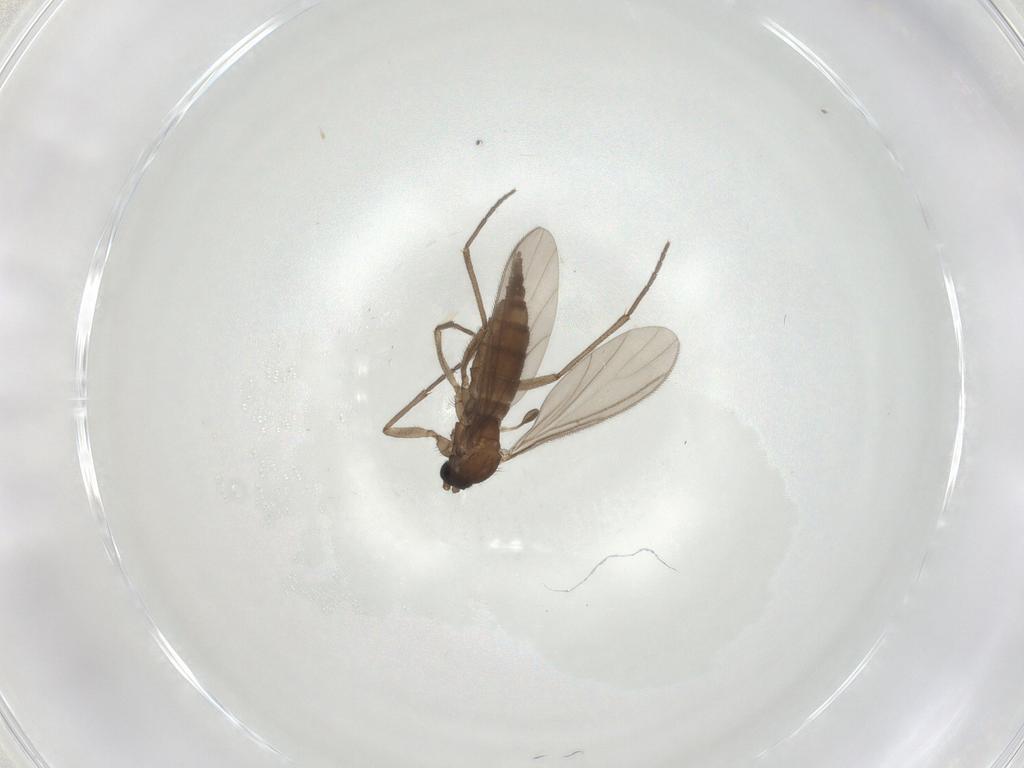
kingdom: Animalia
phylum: Arthropoda
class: Insecta
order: Diptera
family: Sciaridae
